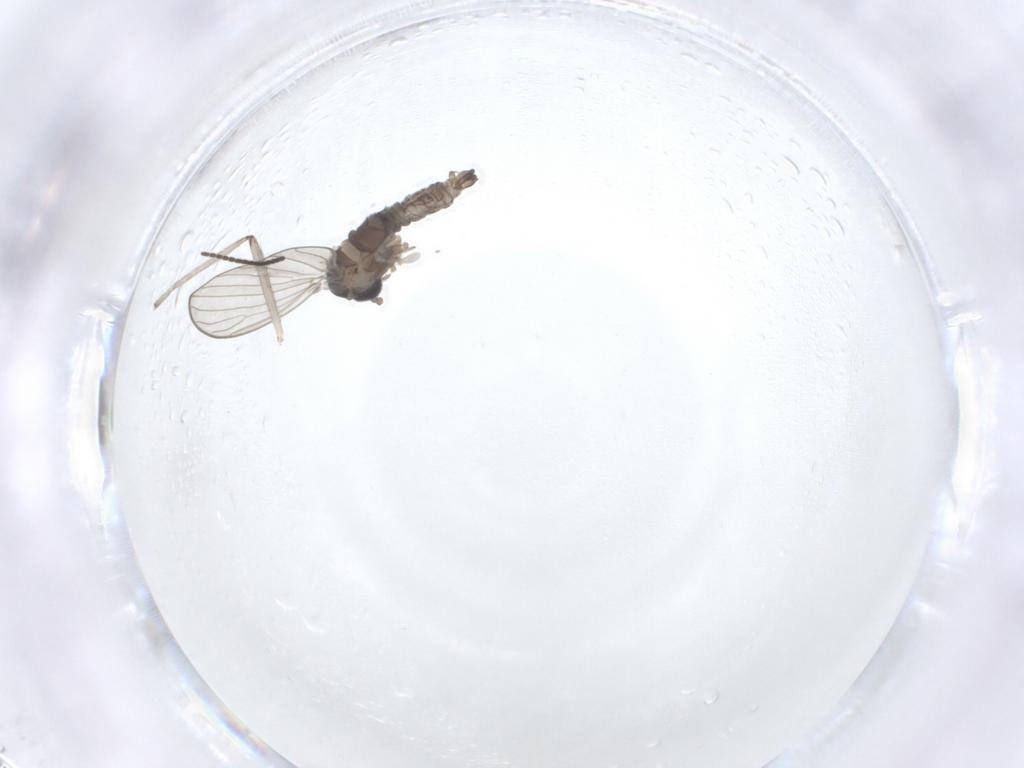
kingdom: Animalia
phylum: Arthropoda
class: Insecta
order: Diptera
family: Psychodidae
